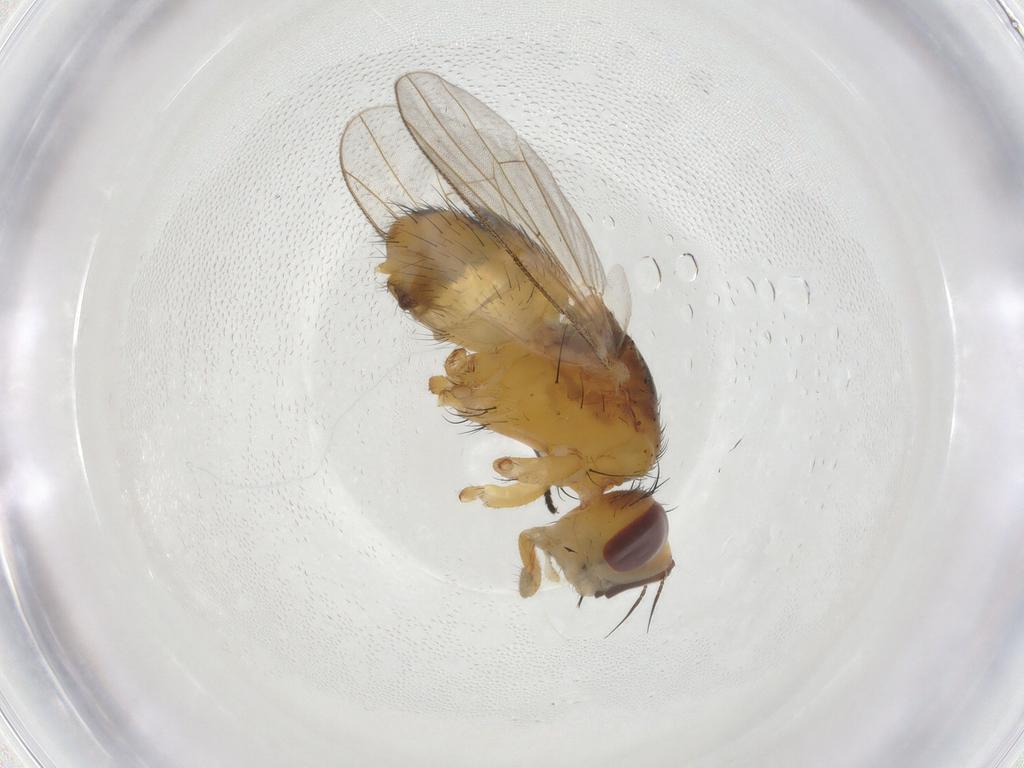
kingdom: Animalia
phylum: Arthropoda
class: Insecta
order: Diptera
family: Muscidae
